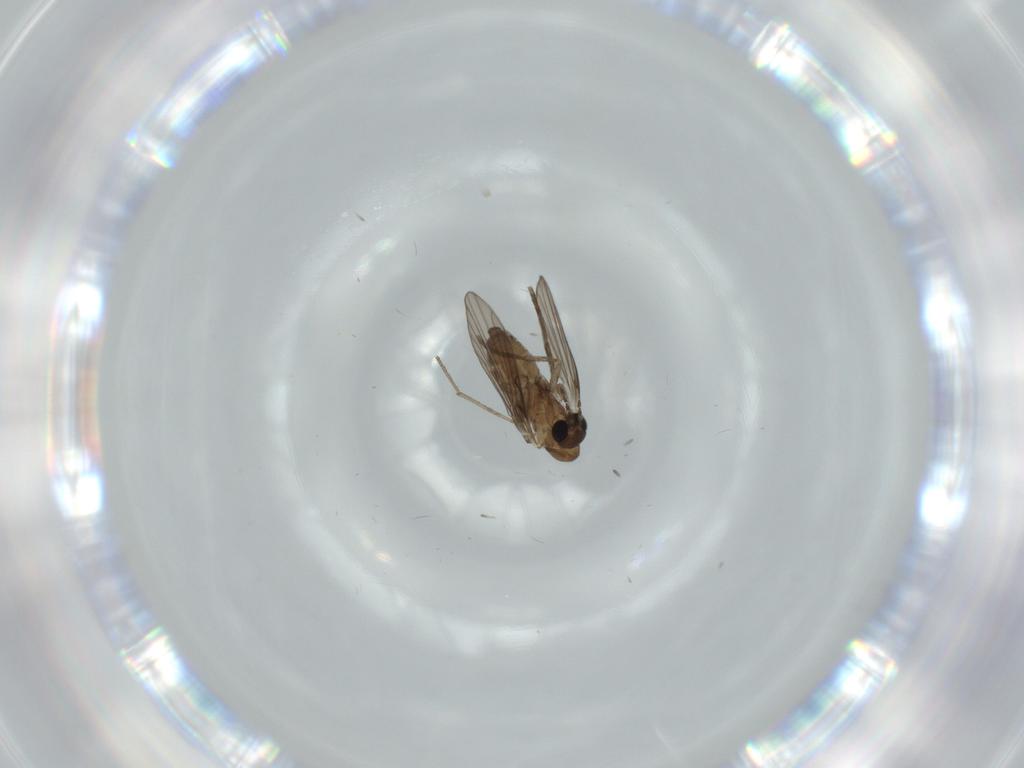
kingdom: Animalia
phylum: Arthropoda
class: Insecta
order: Diptera
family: Psychodidae
